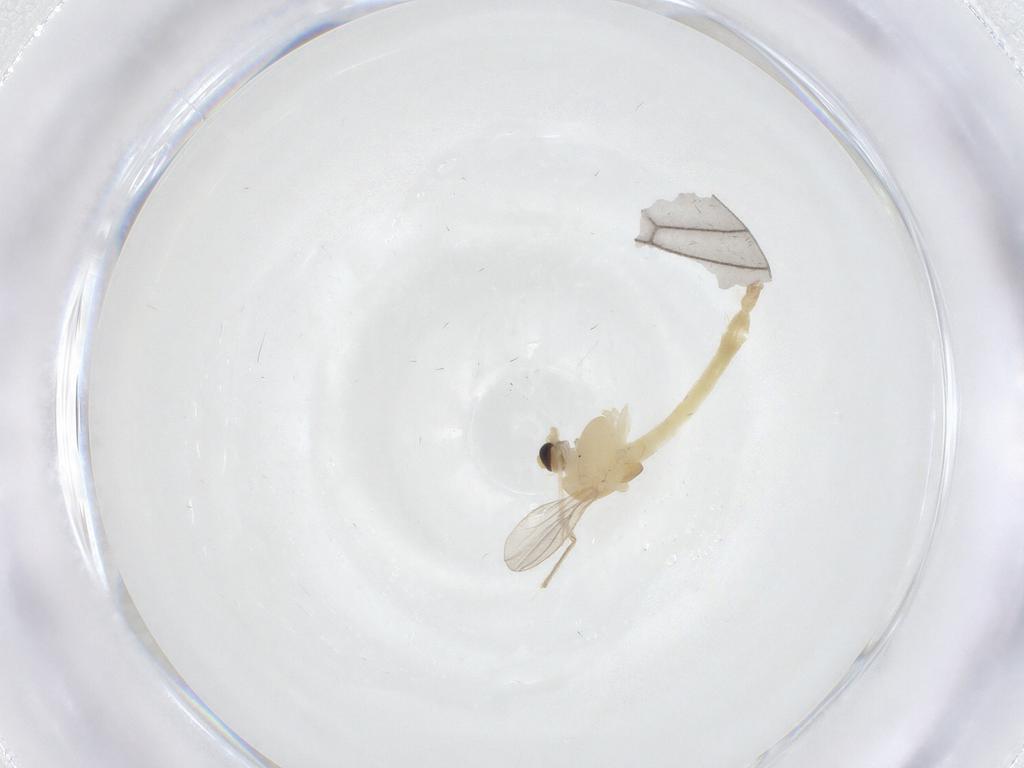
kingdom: Animalia
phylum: Arthropoda
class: Insecta
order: Diptera
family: Chironomidae
